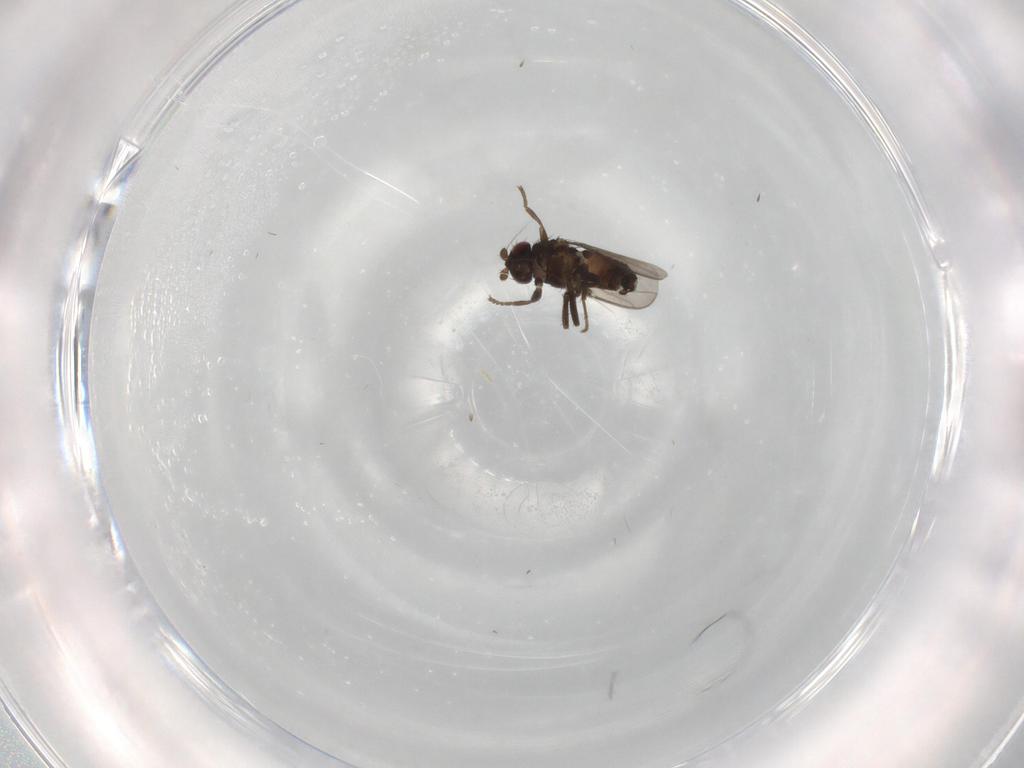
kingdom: Animalia
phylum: Arthropoda
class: Insecta
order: Diptera
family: Sphaeroceridae
